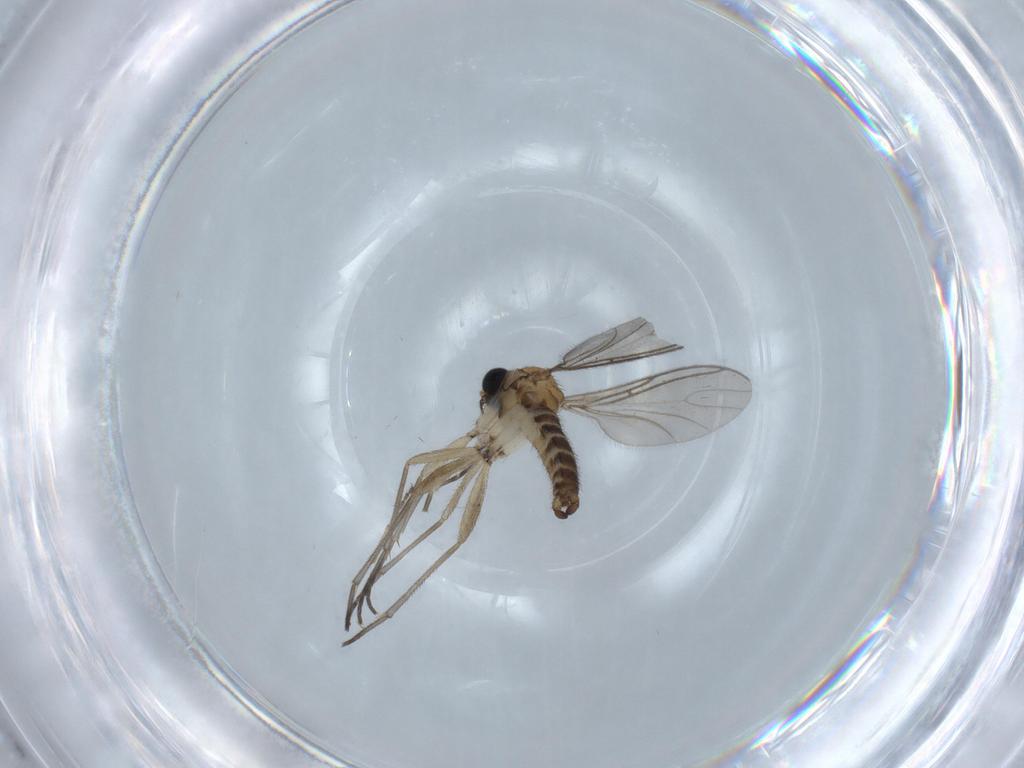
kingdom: Animalia
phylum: Arthropoda
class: Insecta
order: Diptera
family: Sciaridae
